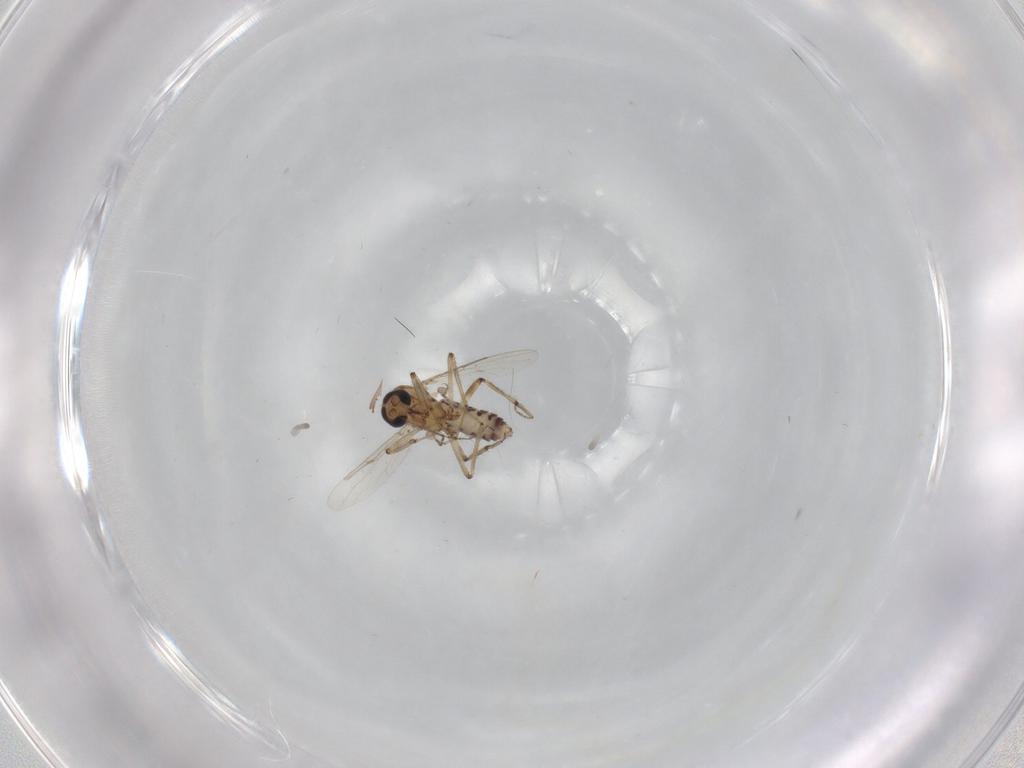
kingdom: Animalia
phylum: Arthropoda
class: Insecta
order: Diptera
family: Ceratopogonidae
